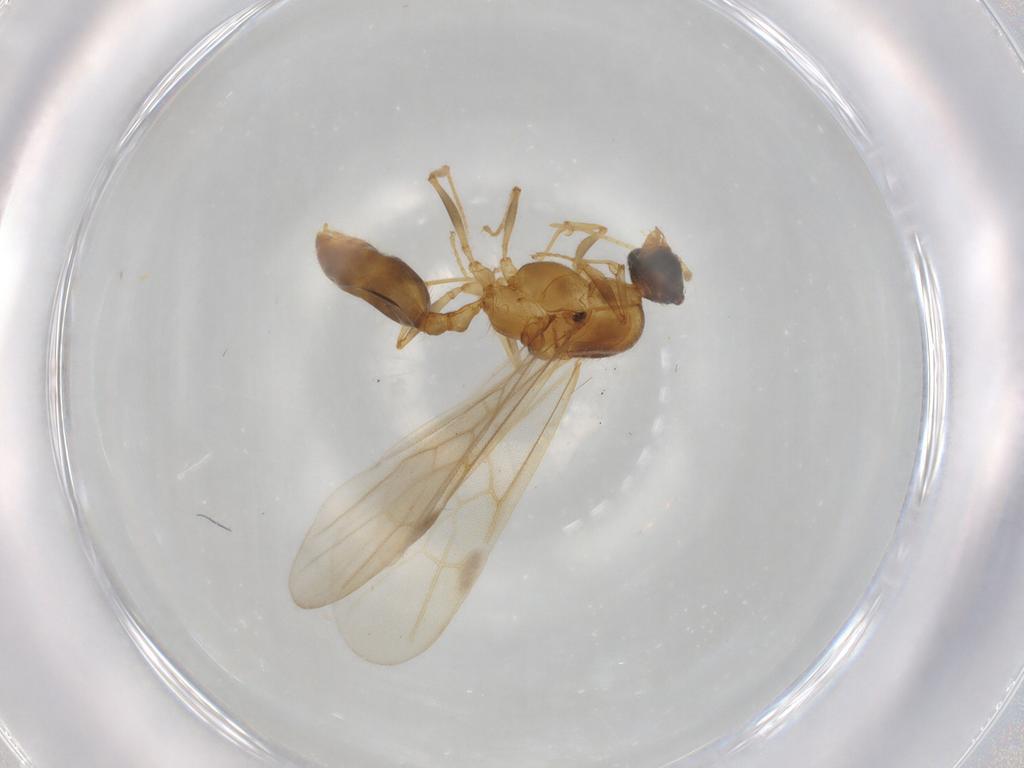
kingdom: Animalia
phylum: Arthropoda
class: Insecta
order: Hymenoptera
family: Formicidae
